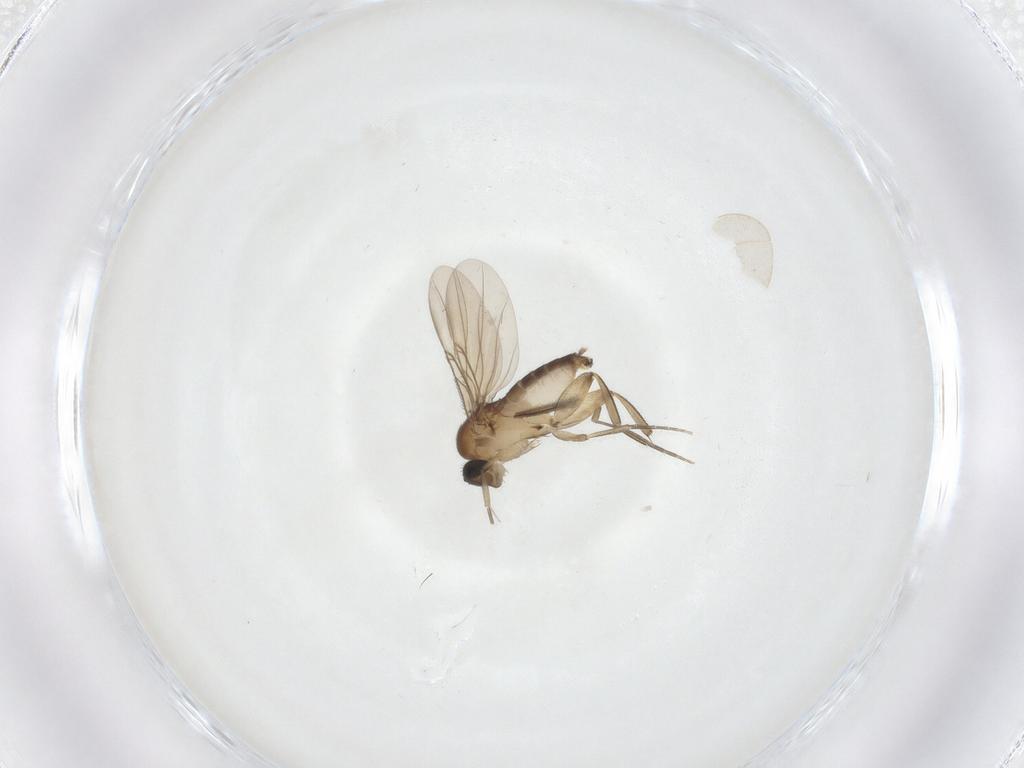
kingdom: Animalia
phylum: Arthropoda
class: Insecta
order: Diptera
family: Phoridae
